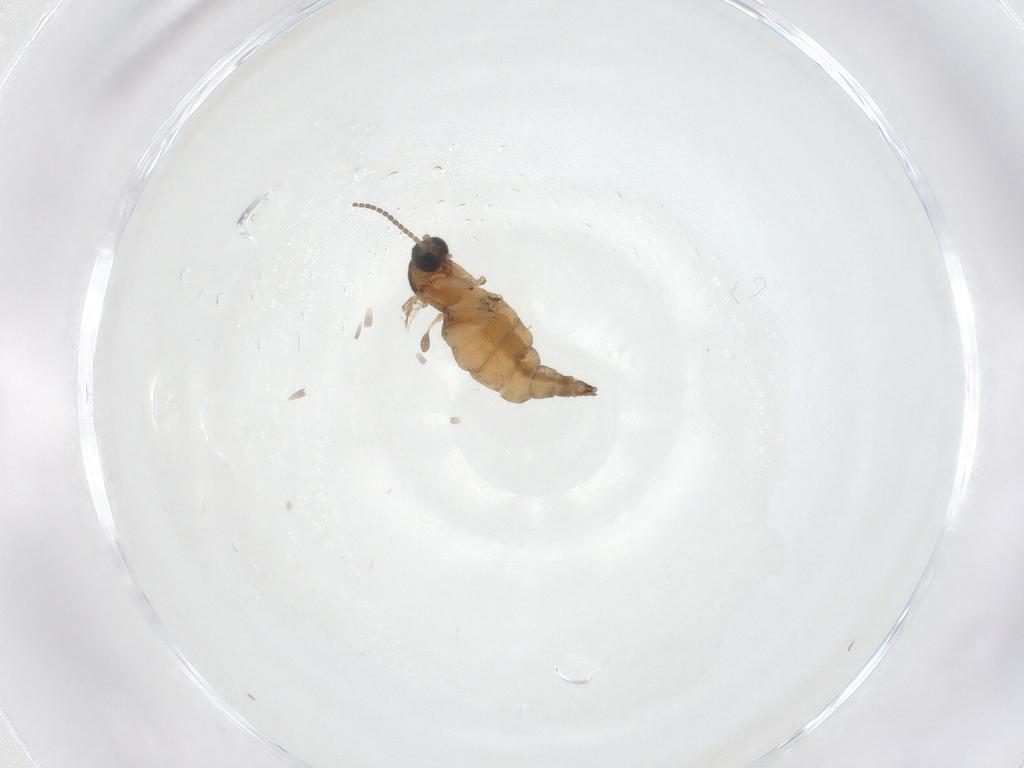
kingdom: Animalia
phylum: Arthropoda
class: Insecta
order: Diptera
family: Sciaridae
